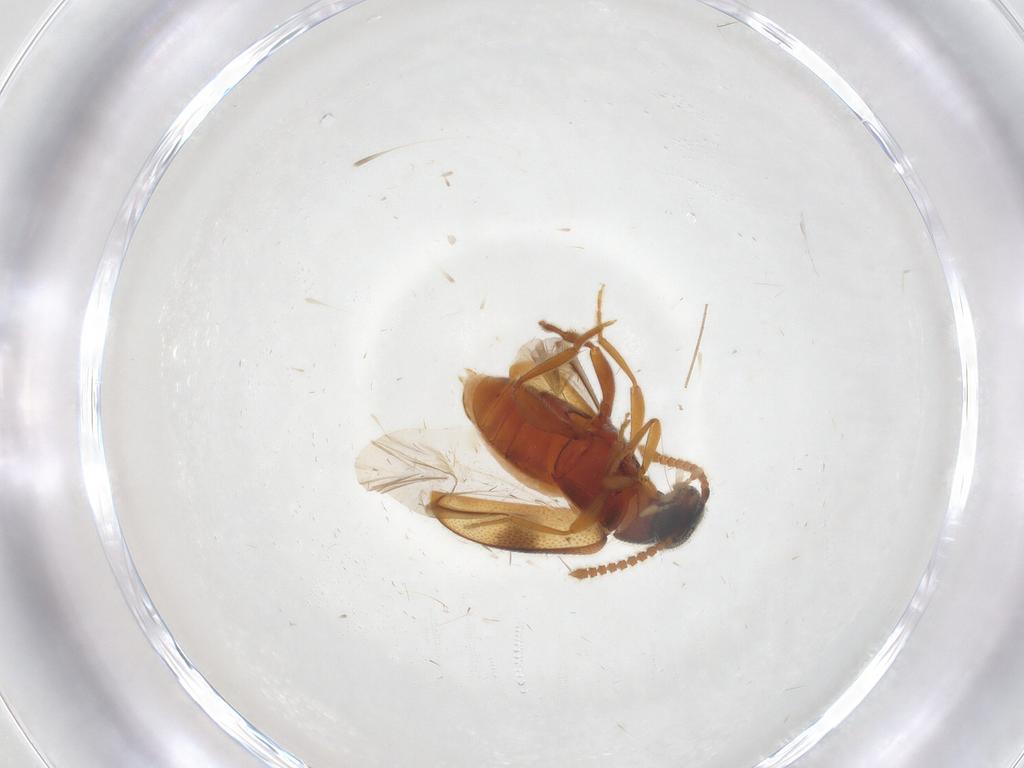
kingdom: Animalia
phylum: Arthropoda
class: Insecta
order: Coleoptera
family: Aderidae
